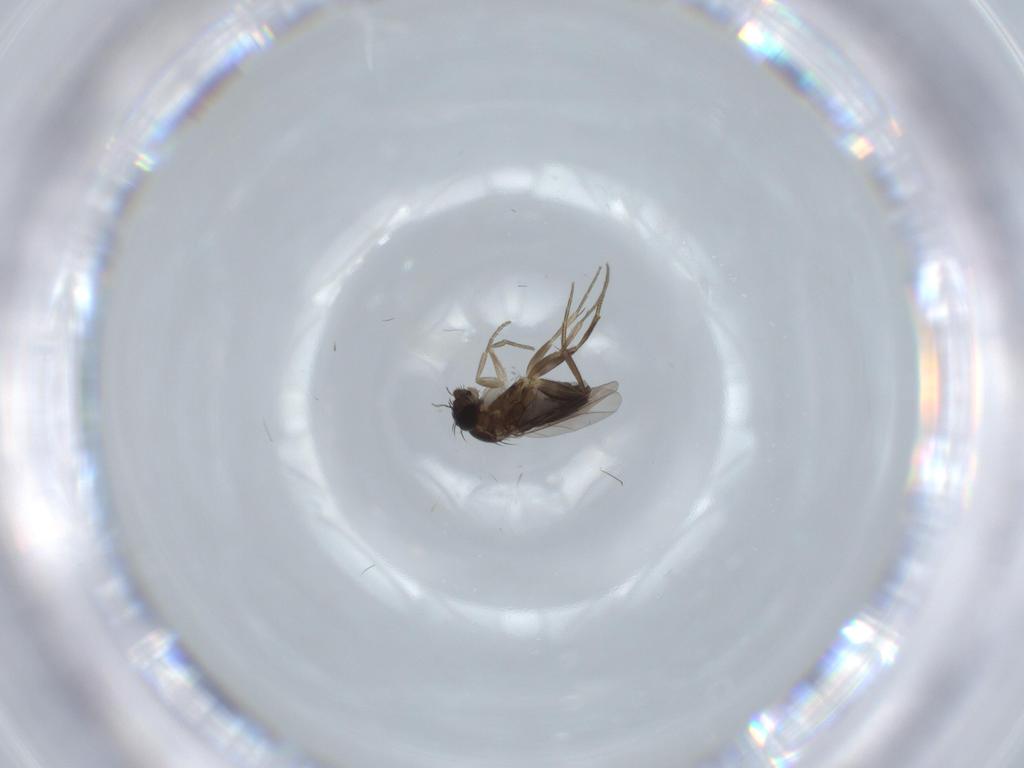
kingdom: Animalia
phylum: Arthropoda
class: Insecta
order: Diptera
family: Phoridae
